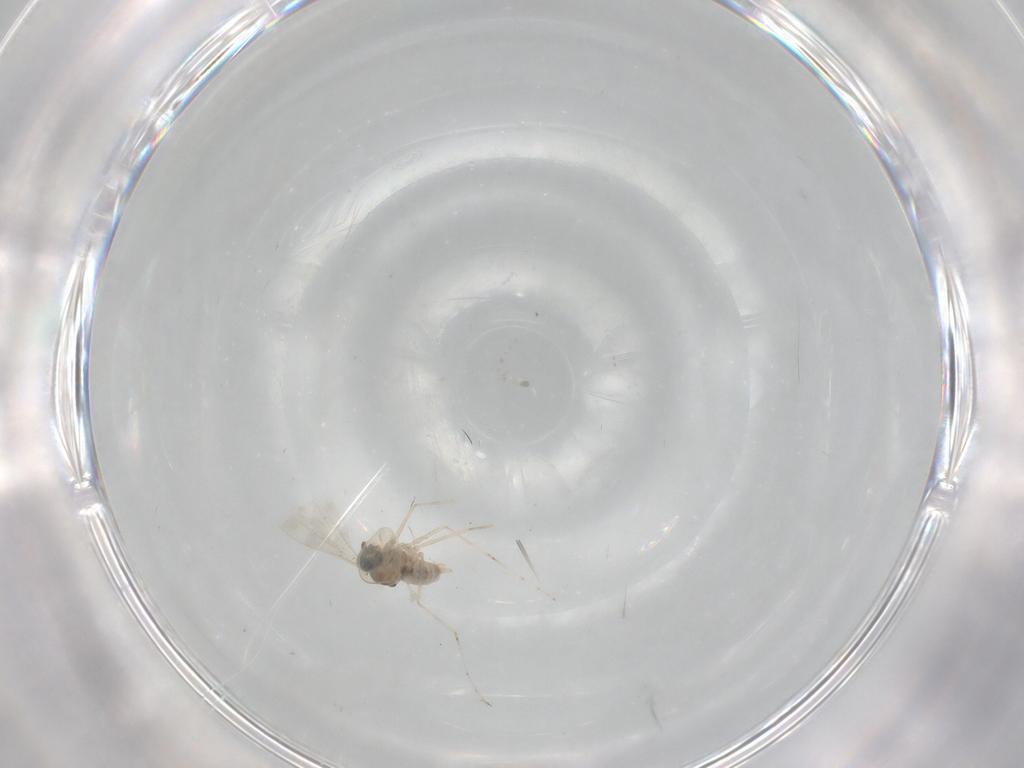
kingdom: Animalia
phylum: Arthropoda
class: Insecta
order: Diptera
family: Cecidomyiidae
